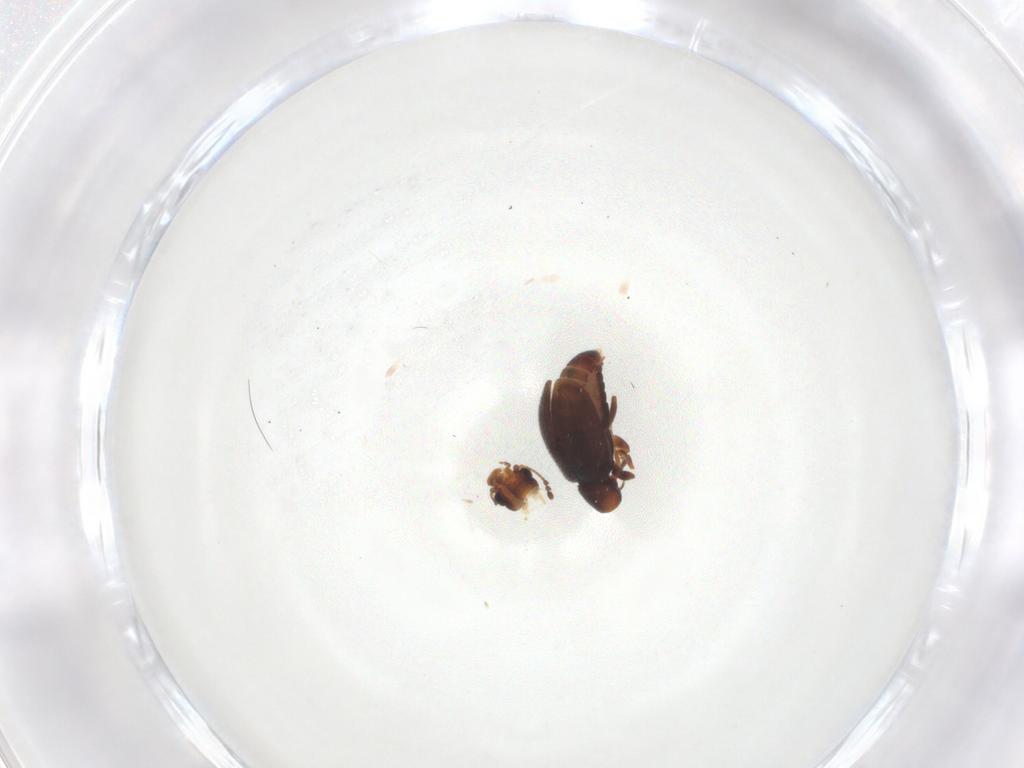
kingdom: Animalia
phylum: Arthropoda
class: Insecta
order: Coleoptera
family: Latridiidae
